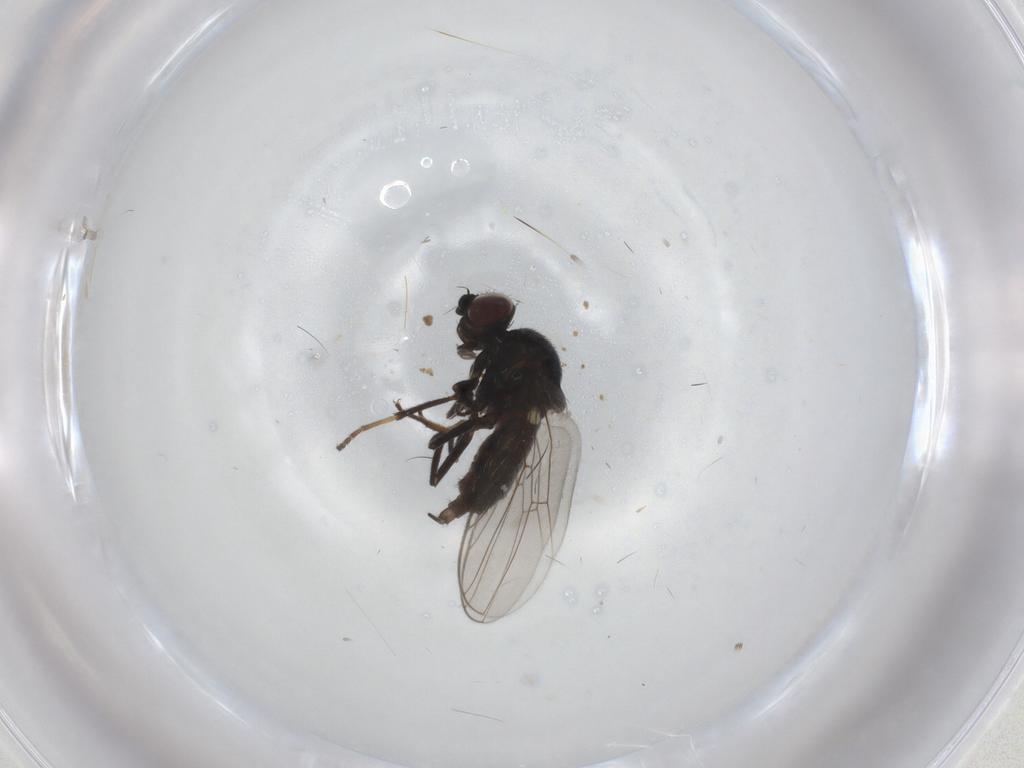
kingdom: Animalia
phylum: Arthropoda
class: Insecta
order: Diptera
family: Chloropidae
